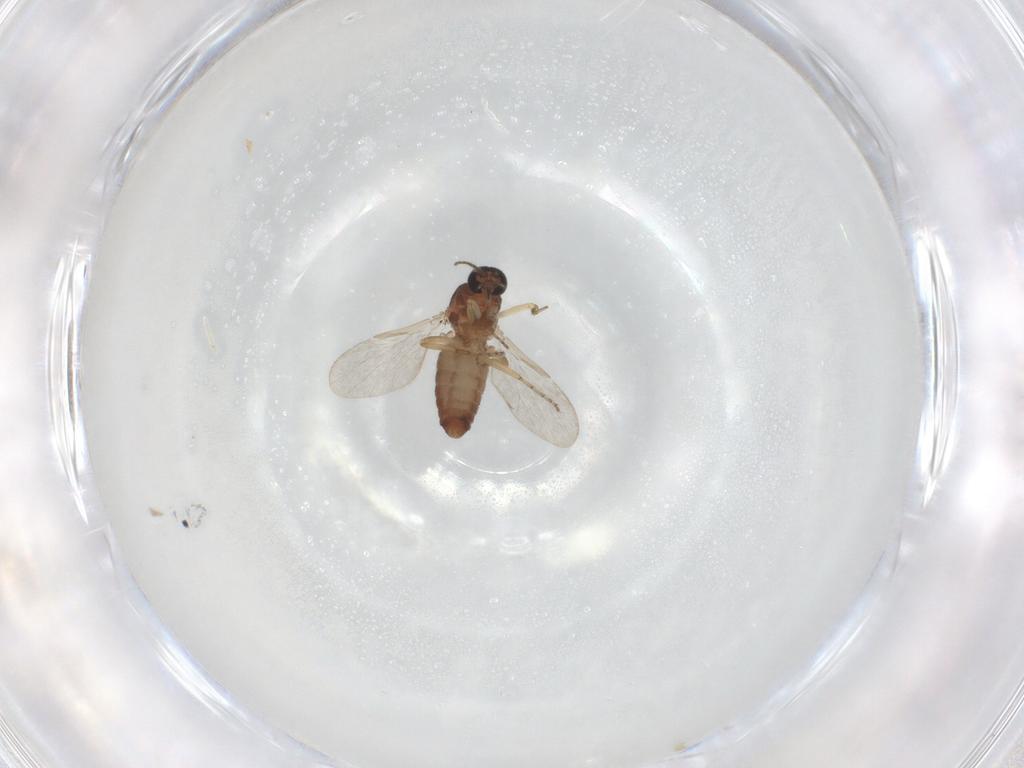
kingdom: Animalia
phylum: Arthropoda
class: Insecta
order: Diptera
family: Ceratopogonidae
